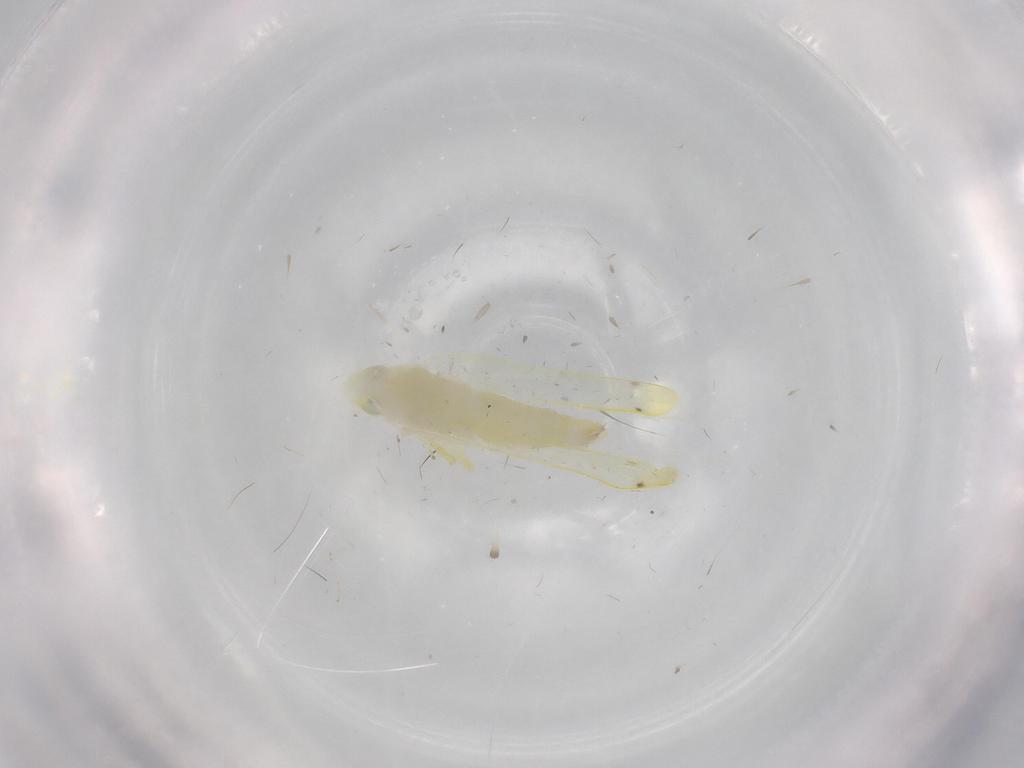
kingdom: Animalia
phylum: Arthropoda
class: Insecta
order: Hemiptera
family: Cicadellidae
